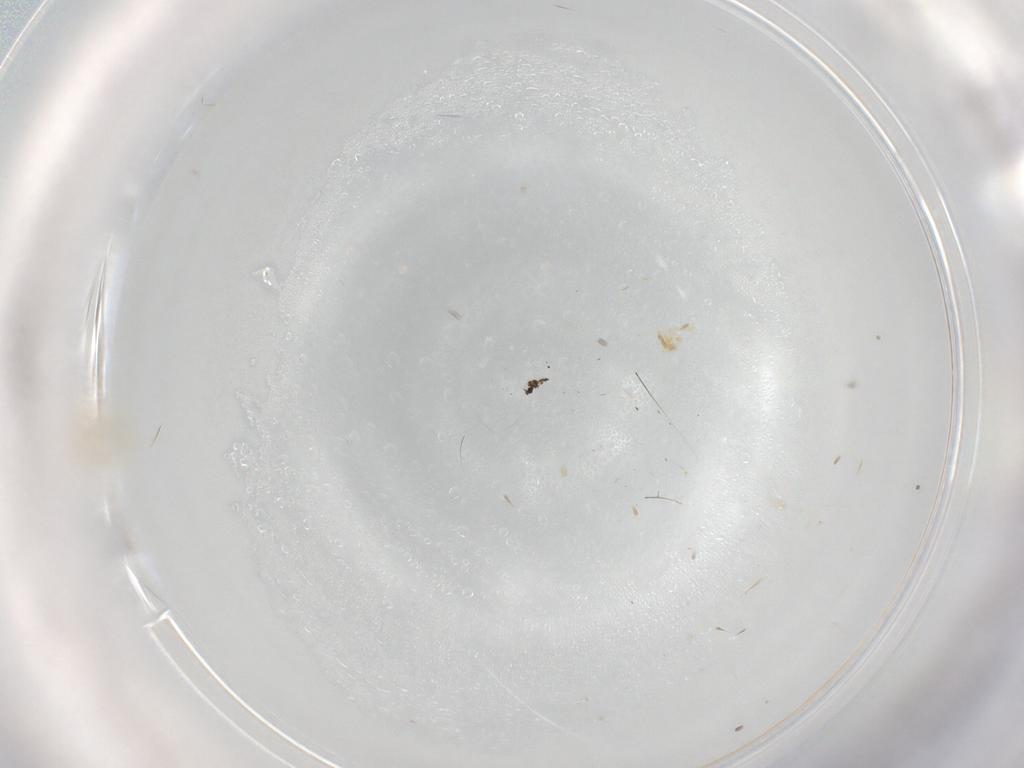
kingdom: Animalia
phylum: Arthropoda
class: Insecta
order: Hemiptera
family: Aleyrodidae
